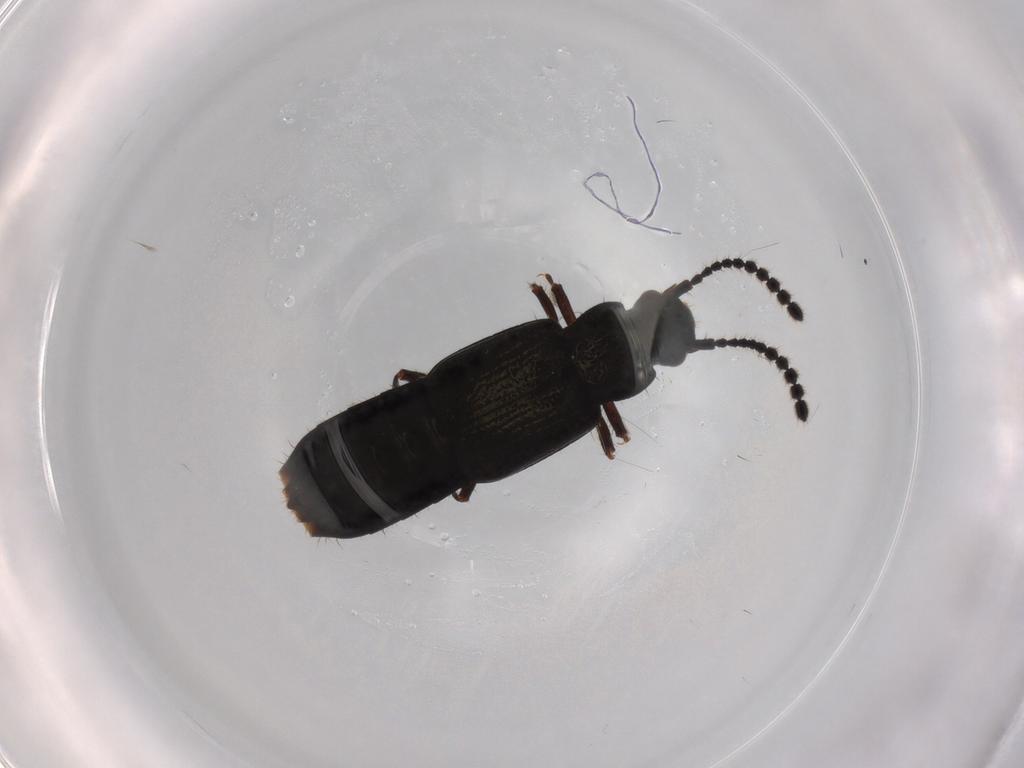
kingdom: Animalia
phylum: Arthropoda
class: Insecta
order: Coleoptera
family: Staphylinidae
